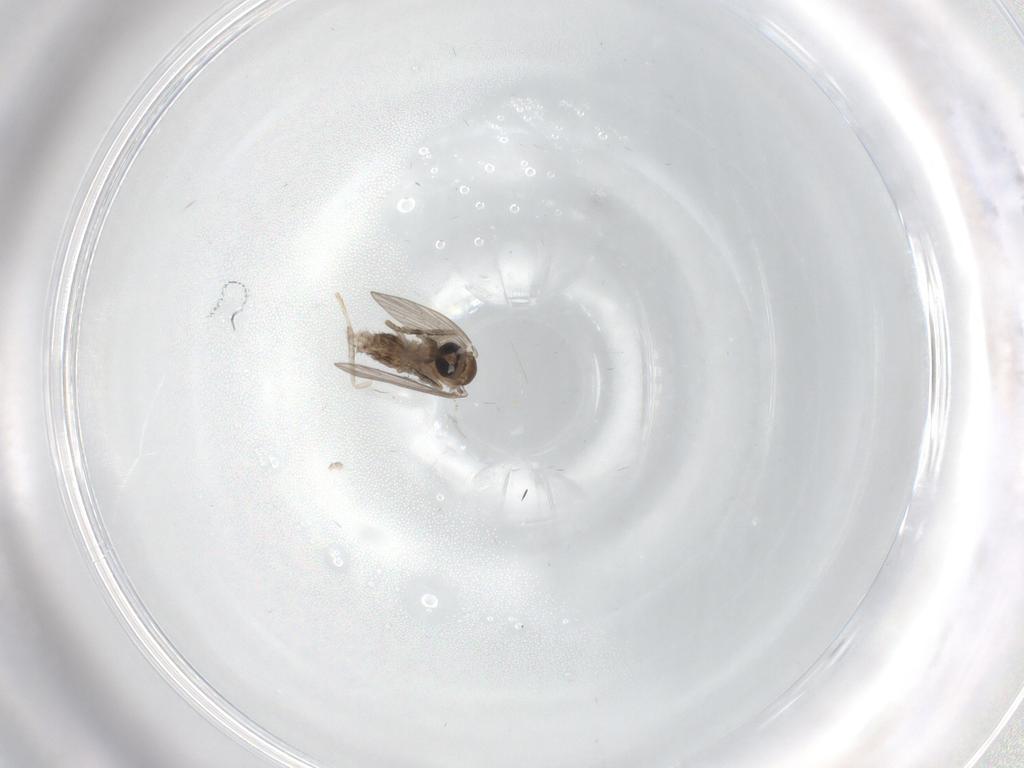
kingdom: Animalia
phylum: Arthropoda
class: Insecta
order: Diptera
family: Psychodidae
